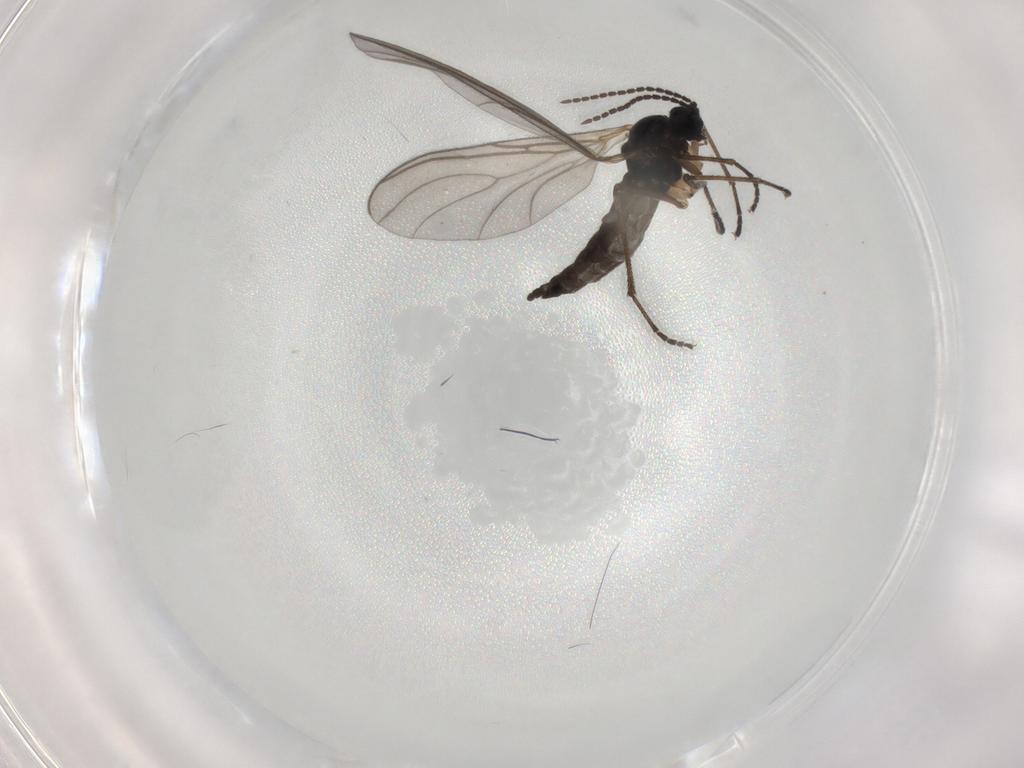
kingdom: Animalia
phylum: Arthropoda
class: Insecta
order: Diptera
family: Sciaridae
